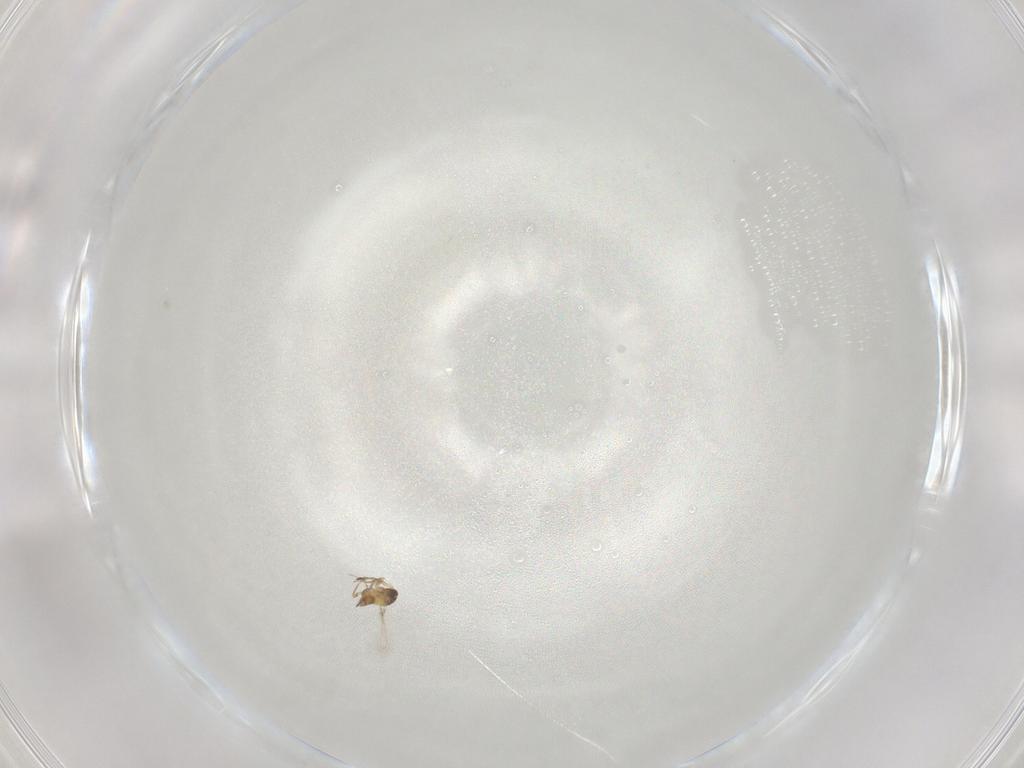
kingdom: Animalia
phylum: Arthropoda
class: Insecta
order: Hymenoptera
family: Mymaridae
